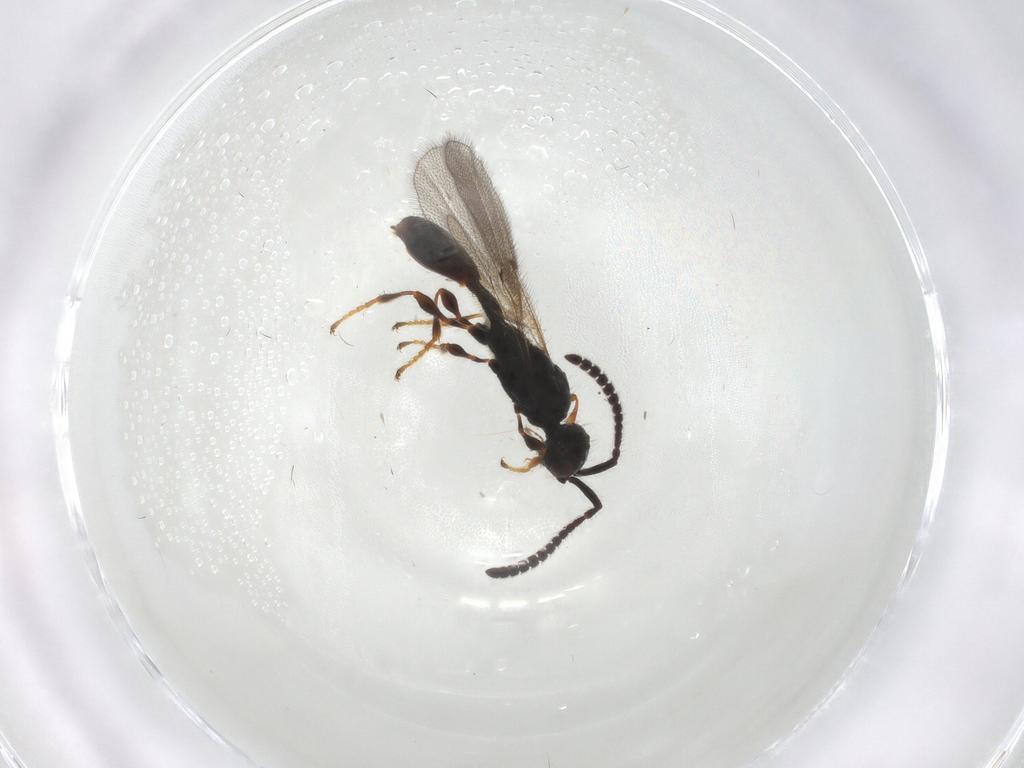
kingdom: Animalia
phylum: Arthropoda
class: Insecta
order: Hymenoptera
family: Diapriidae
